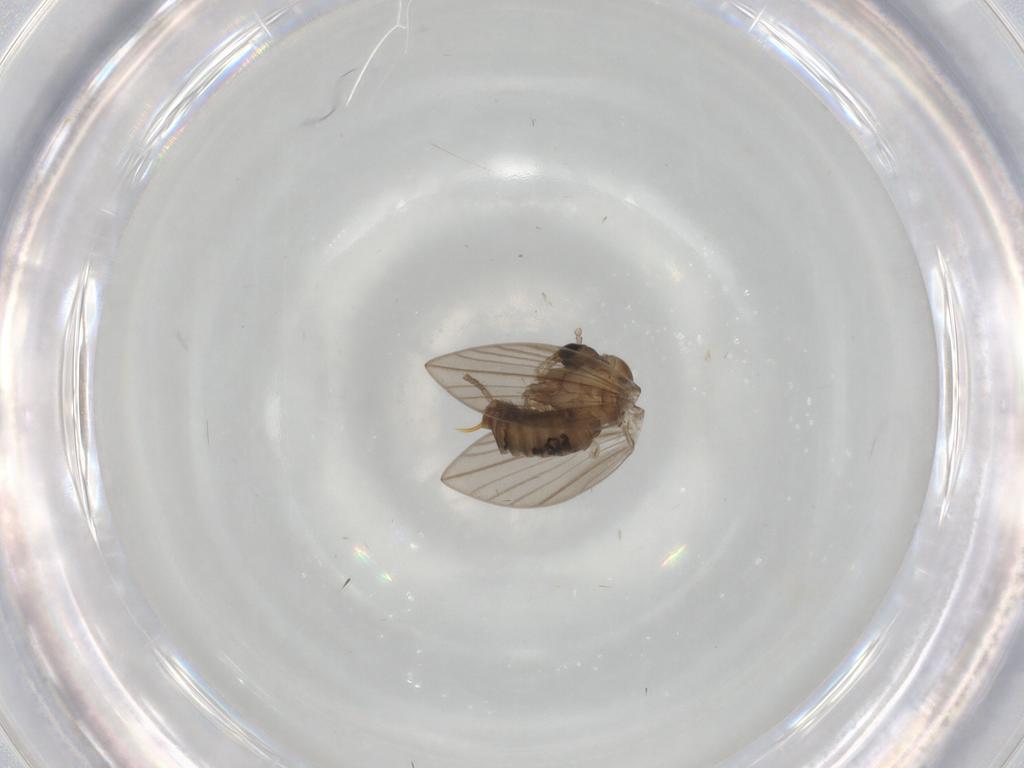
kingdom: Animalia
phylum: Arthropoda
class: Insecta
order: Diptera
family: Psychodidae
